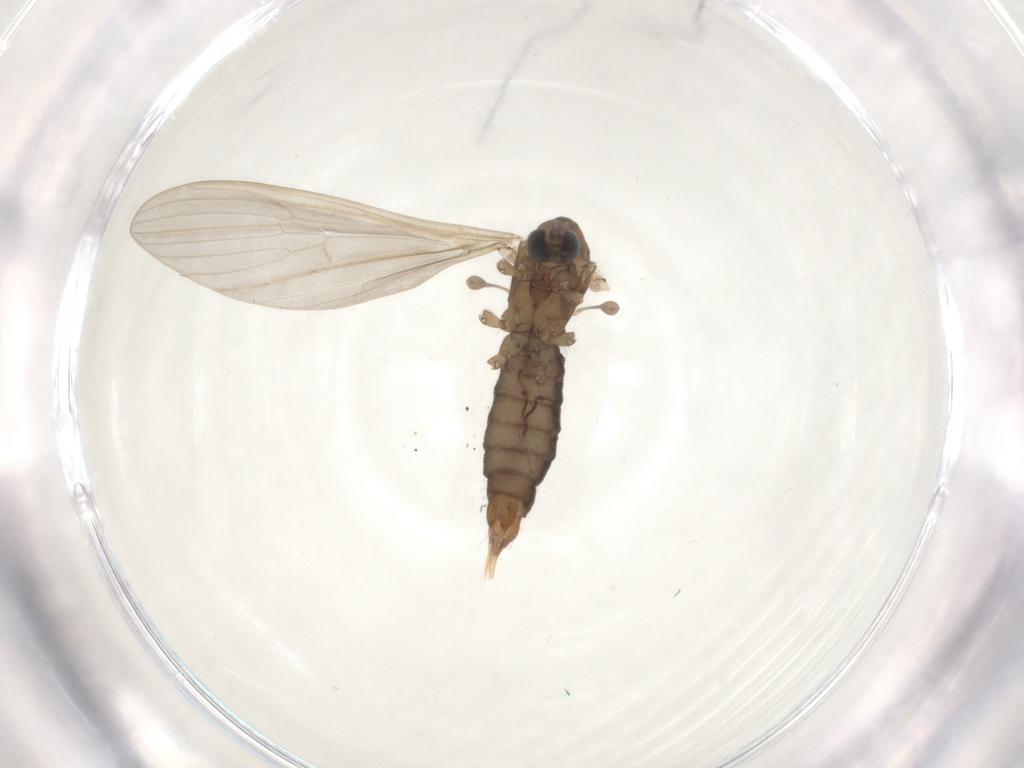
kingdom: Animalia
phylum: Arthropoda
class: Insecta
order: Diptera
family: Limoniidae
